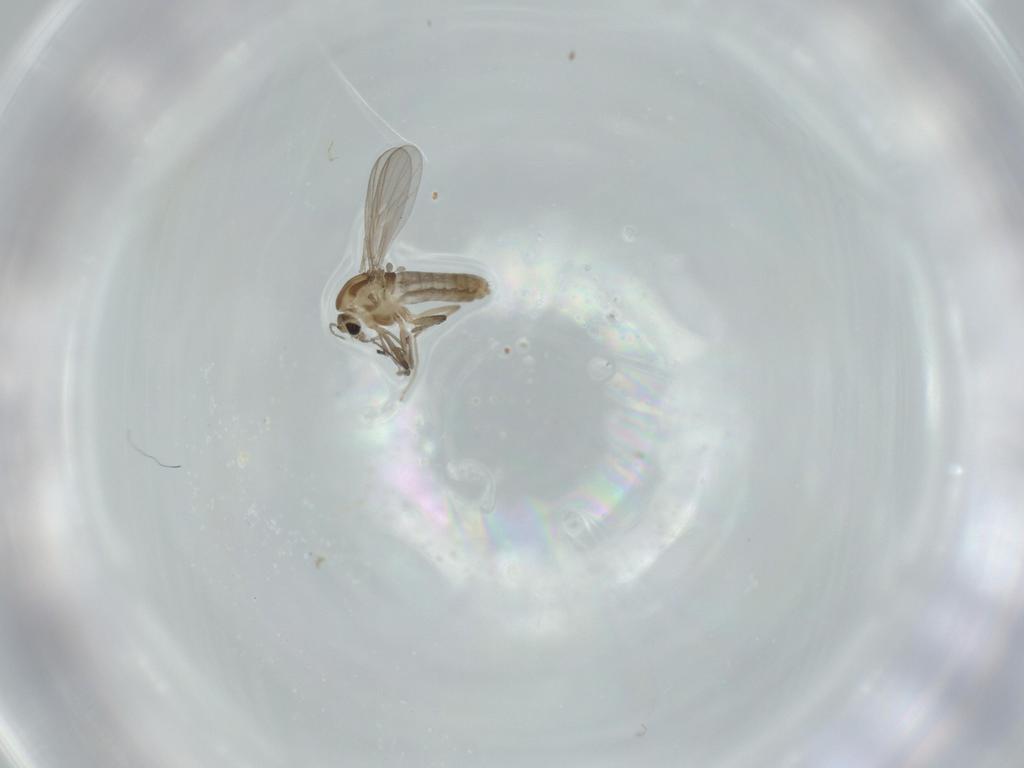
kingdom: Animalia
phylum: Arthropoda
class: Insecta
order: Diptera
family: Chironomidae
